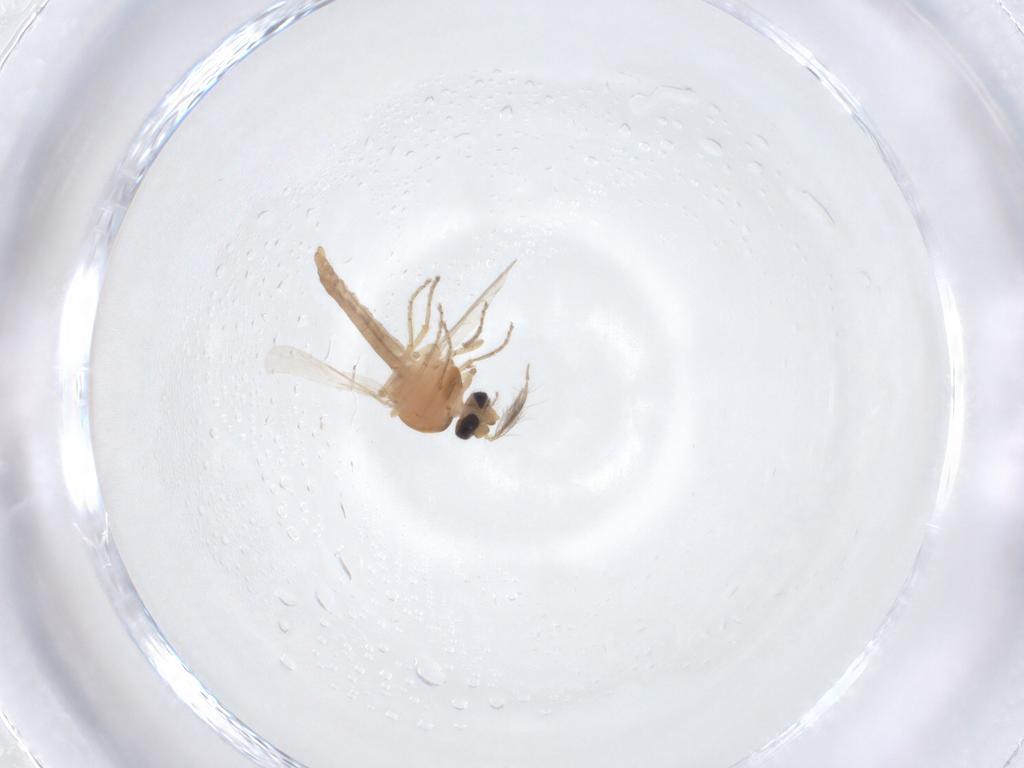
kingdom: Animalia
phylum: Arthropoda
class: Insecta
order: Diptera
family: Ceratopogonidae
